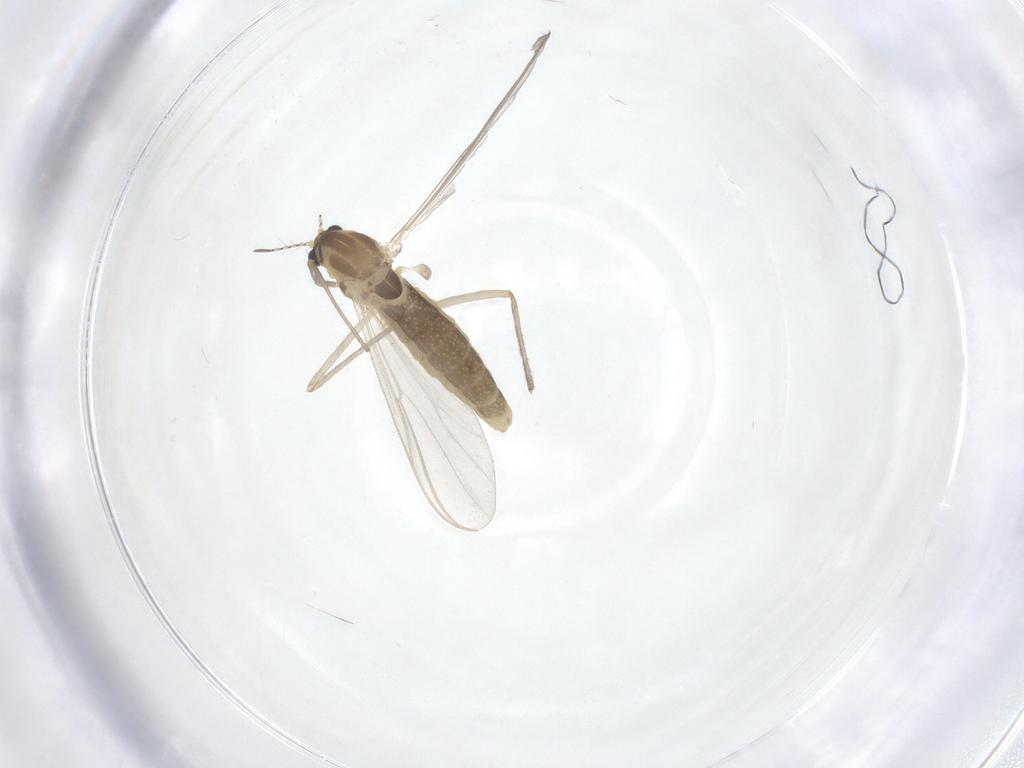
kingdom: Animalia
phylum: Arthropoda
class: Insecta
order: Diptera
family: Chironomidae
